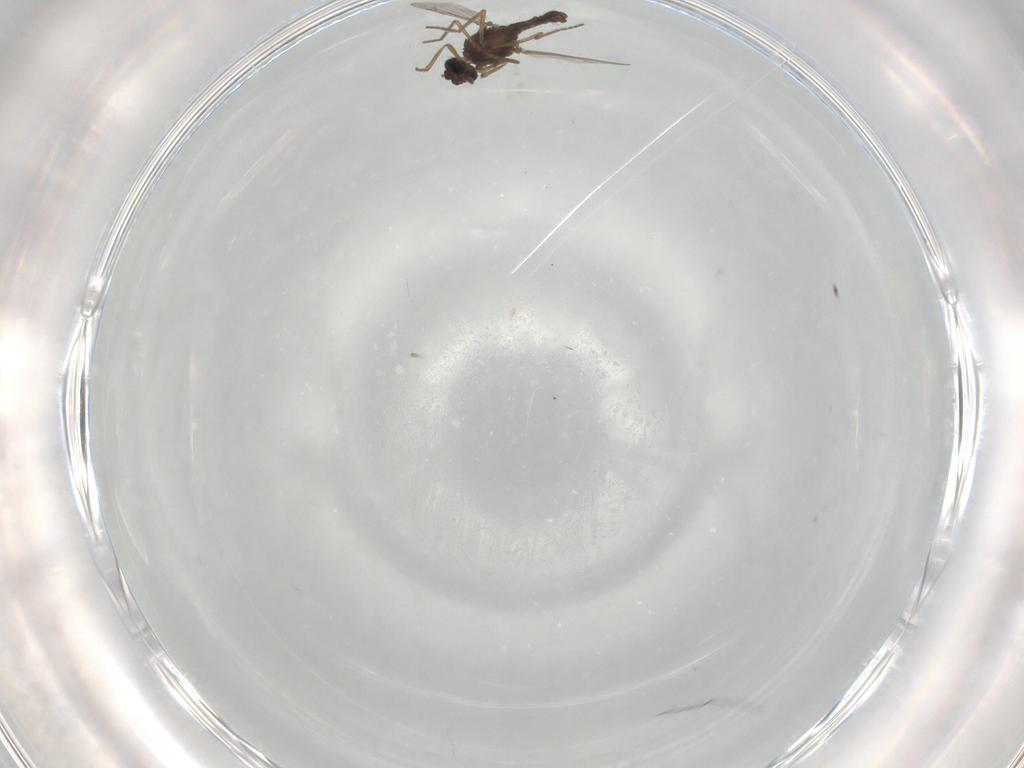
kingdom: Animalia
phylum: Arthropoda
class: Insecta
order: Diptera
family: Ceratopogonidae
